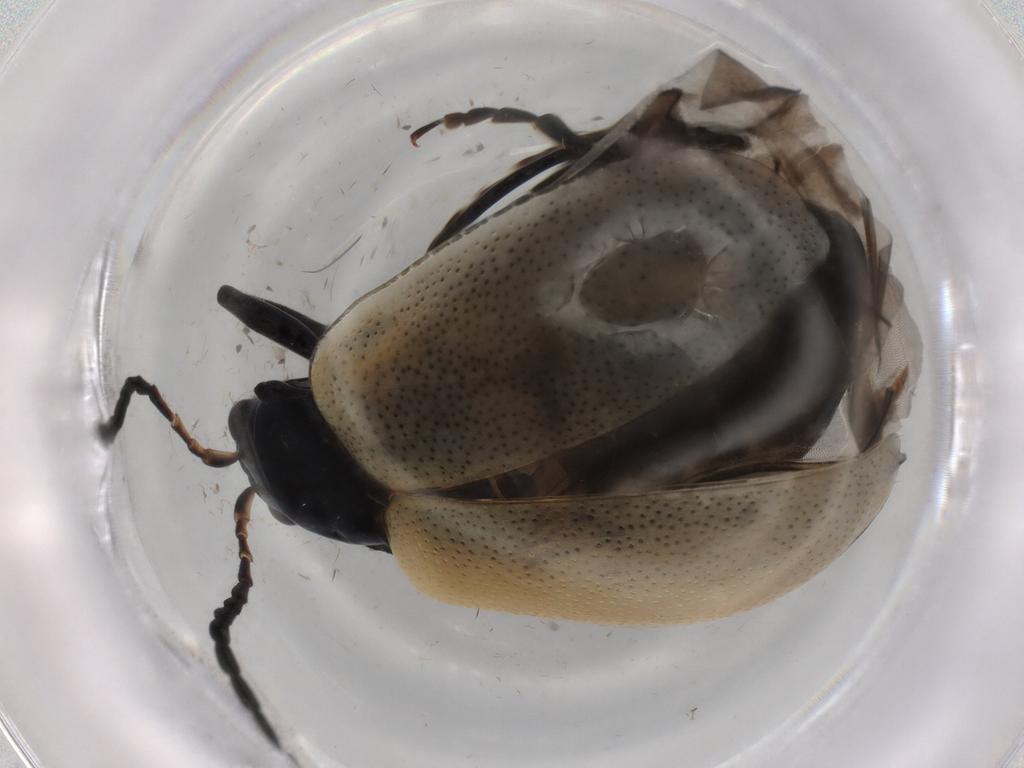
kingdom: Animalia
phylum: Arthropoda
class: Insecta
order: Coleoptera
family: Chrysomelidae
